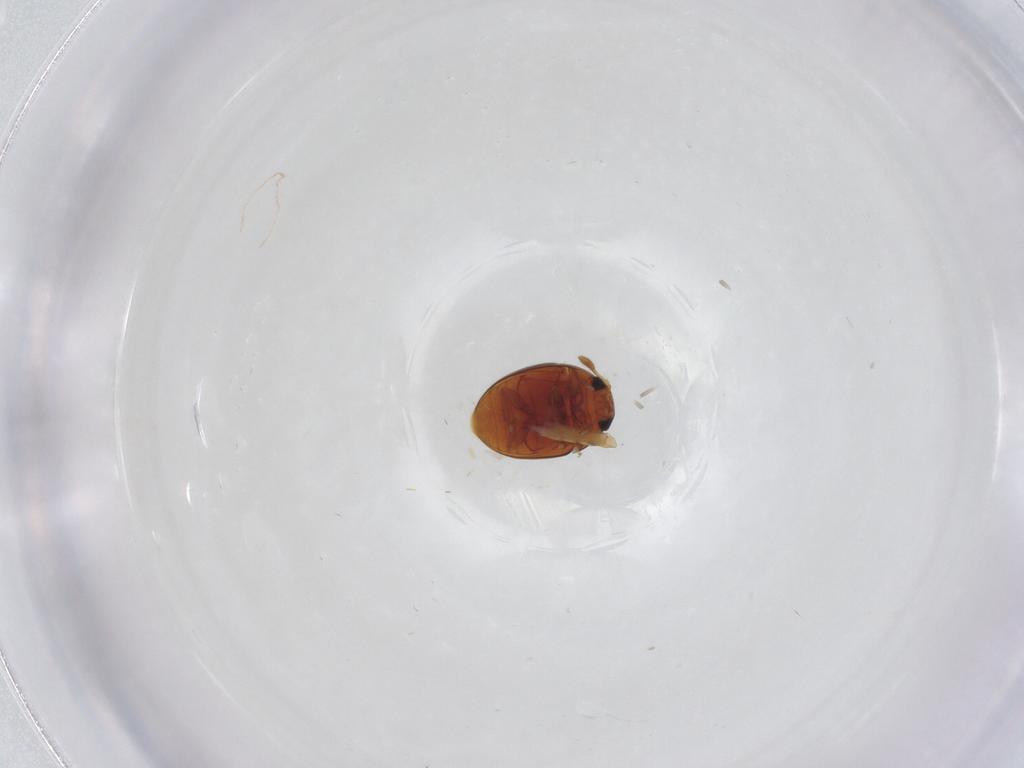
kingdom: Animalia
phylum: Arthropoda
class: Insecta
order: Coleoptera
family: Phalacridae
